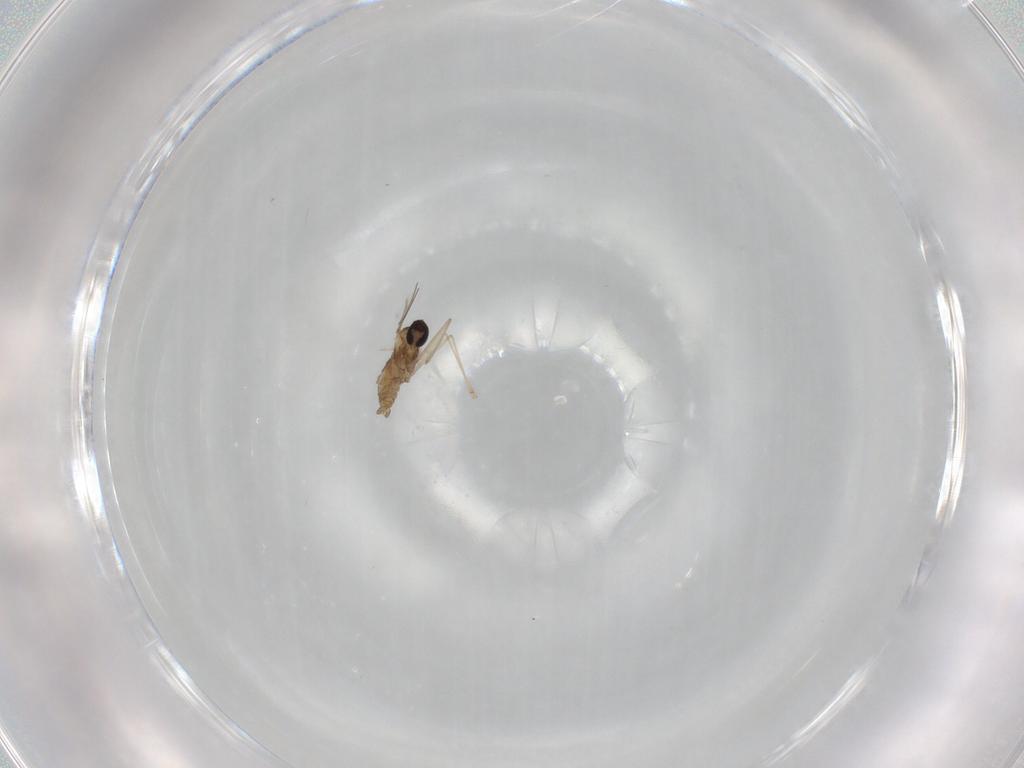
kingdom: Animalia
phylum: Arthropoda
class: Insecta
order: Diptera
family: Cecidomyiidae
